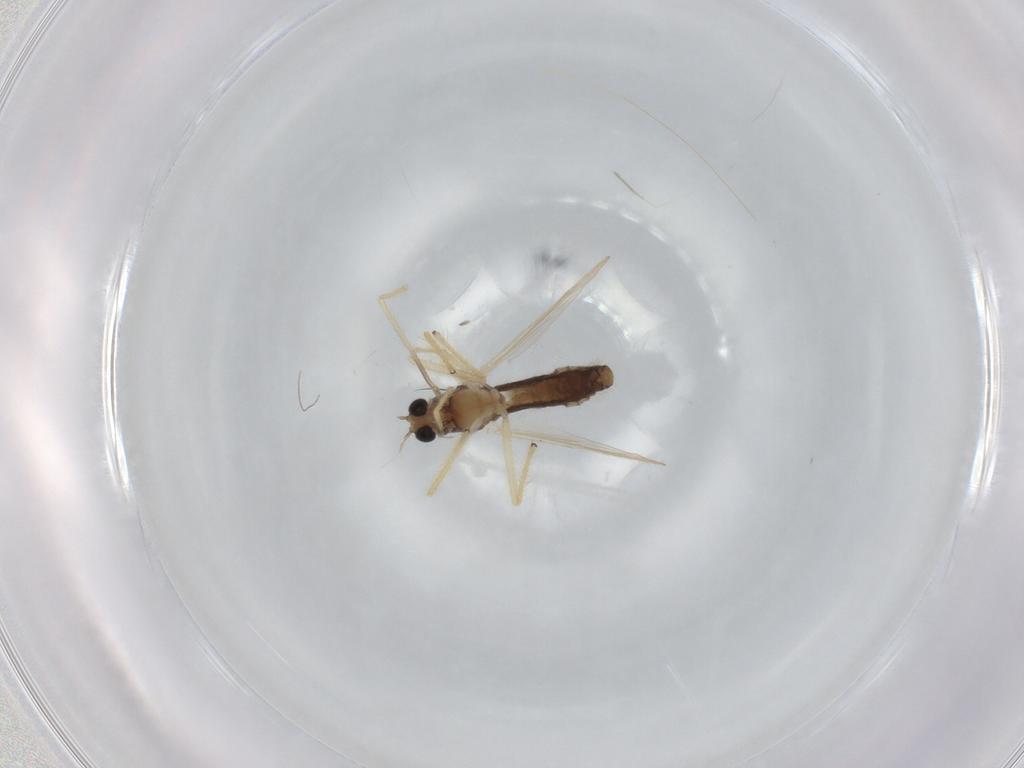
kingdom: Animalia
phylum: Arthropoda
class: Insecta
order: Diptera
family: Chironomidae
